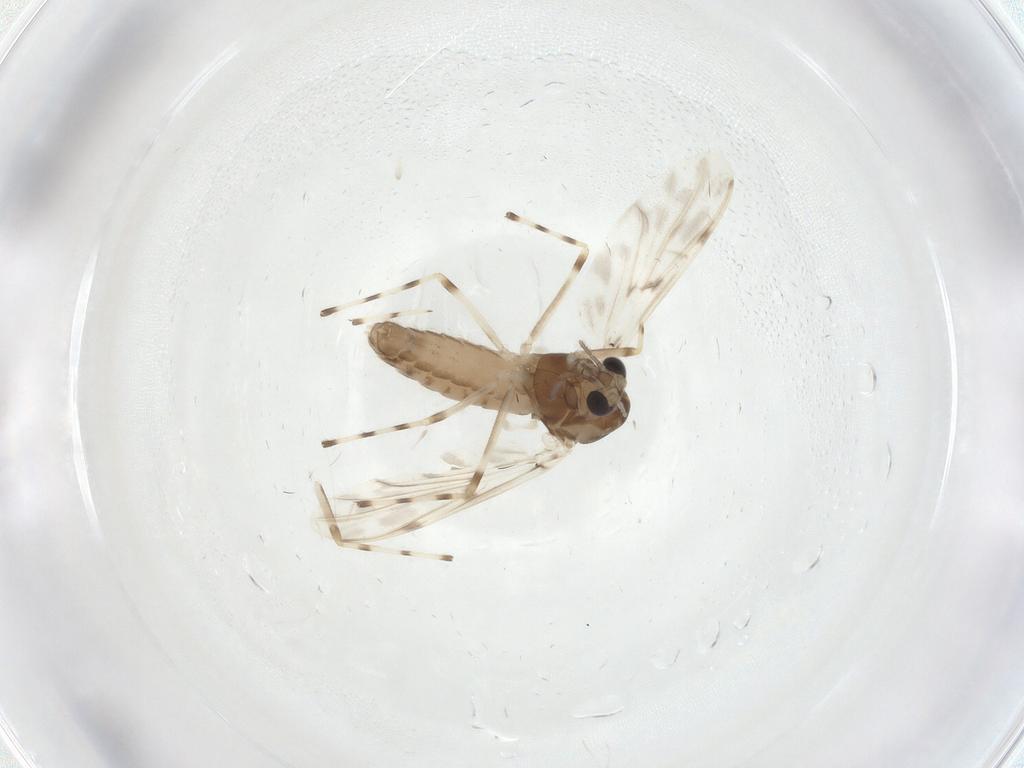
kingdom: Animalia
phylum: Arthropoda
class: Insecta
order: Diptera
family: Chironomidae
